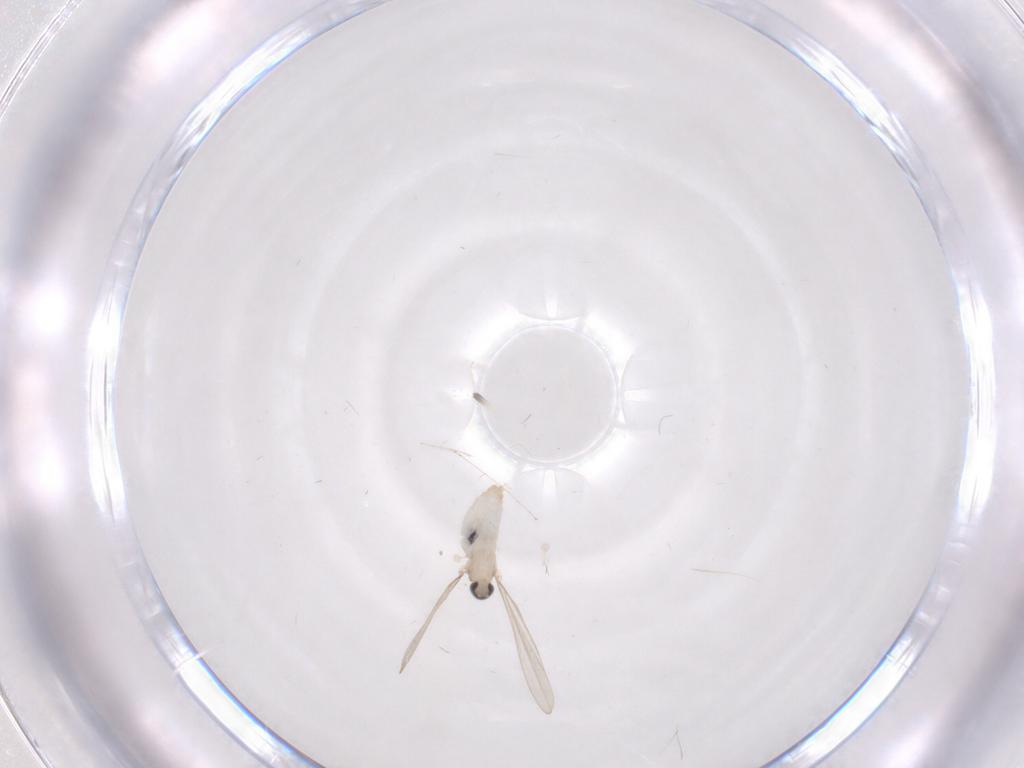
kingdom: Animalia
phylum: Arthropoda
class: Insecta
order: Diptera
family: Cecidomyiidae
